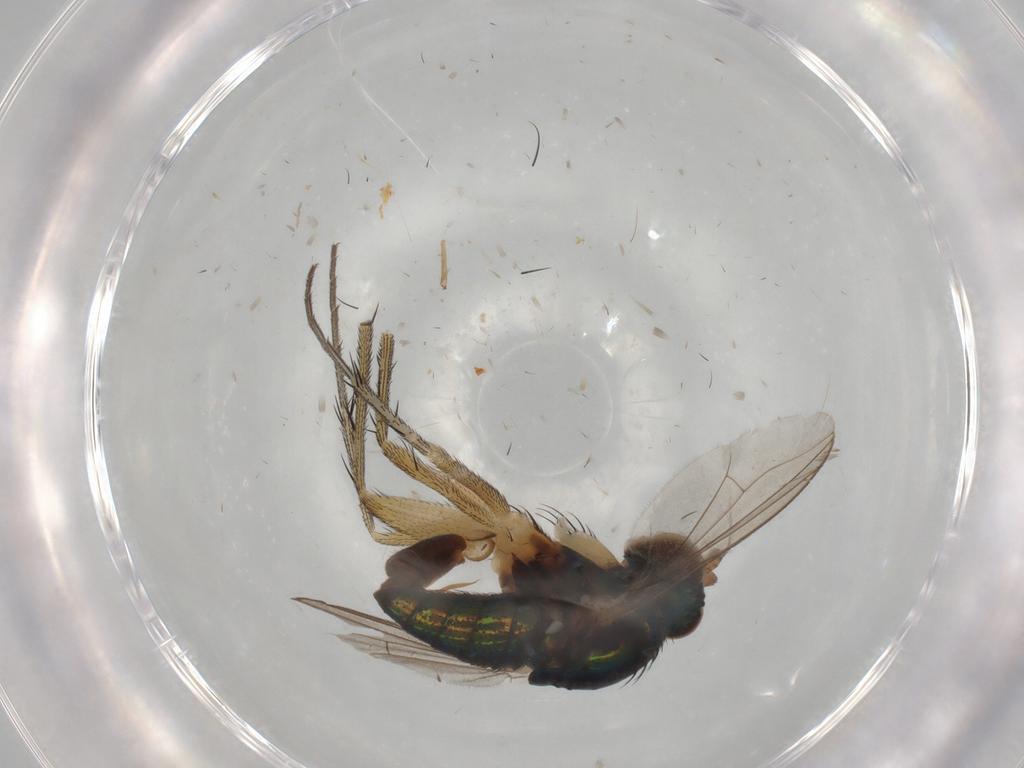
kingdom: Animalia
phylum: Arthropoda
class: Insecta
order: Diptera
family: Dolichopodidae
